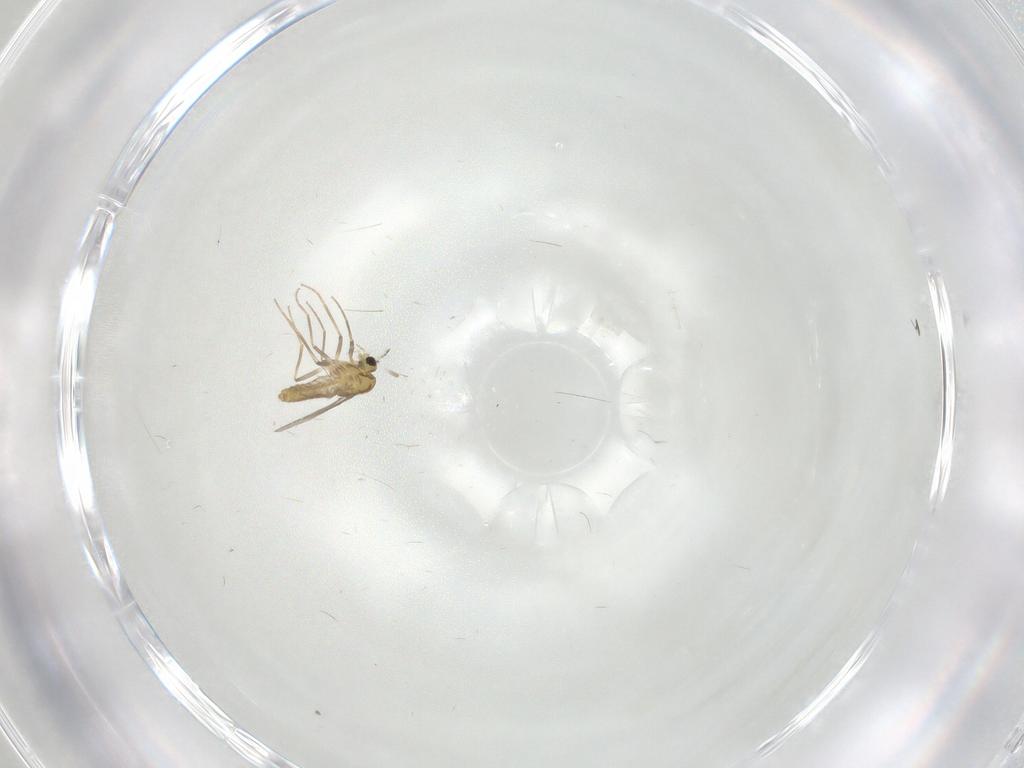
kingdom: Animalia
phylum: Arthropoda
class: Insecta
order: Diptera
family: Chironomidae
